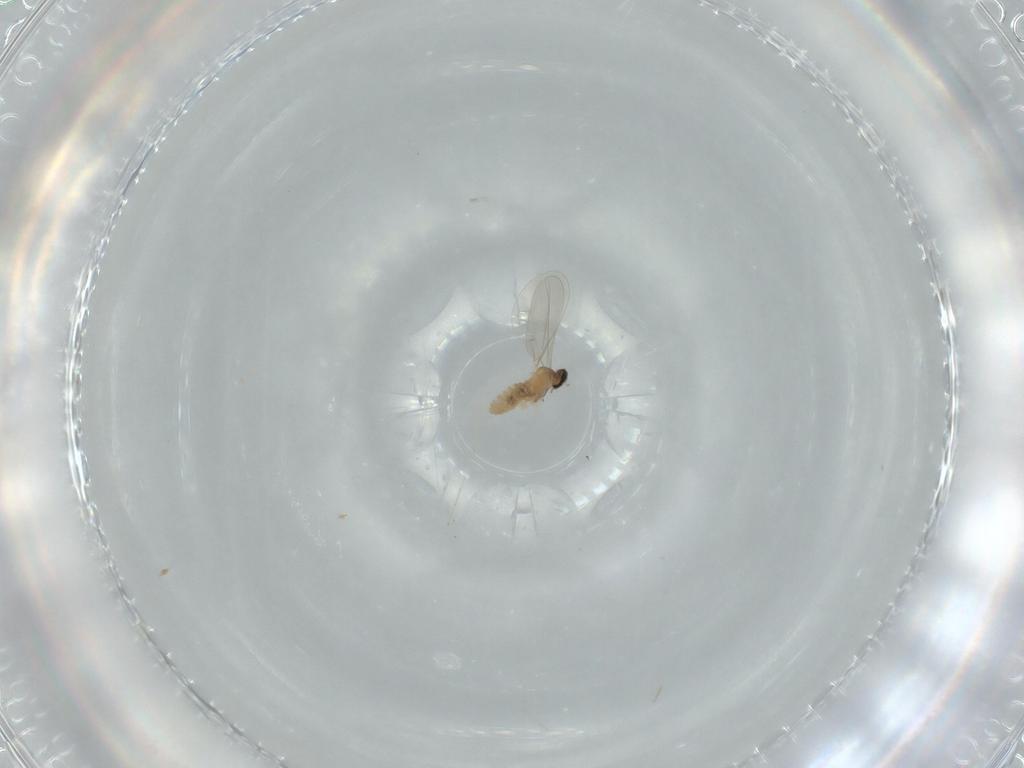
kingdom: Animalia
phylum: Arthropoda
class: Insecta
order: Diptera
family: Cecidomyiidae
